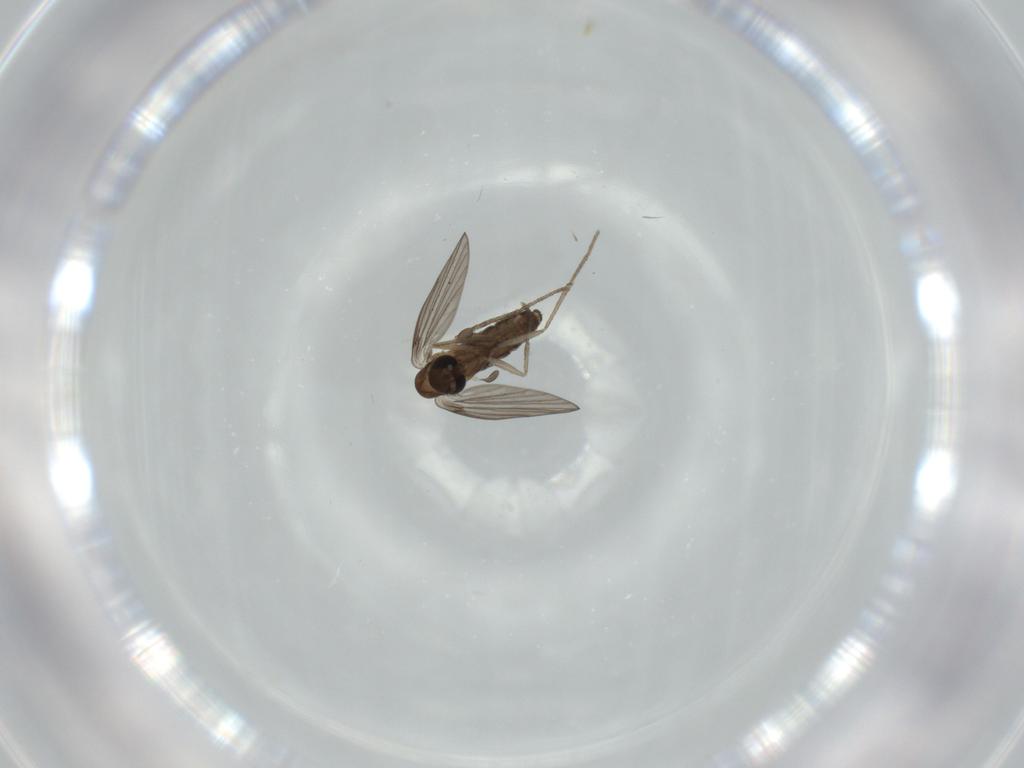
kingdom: Animalia
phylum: Arthropoda
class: Insecta
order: Diptera
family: Psychodidae
